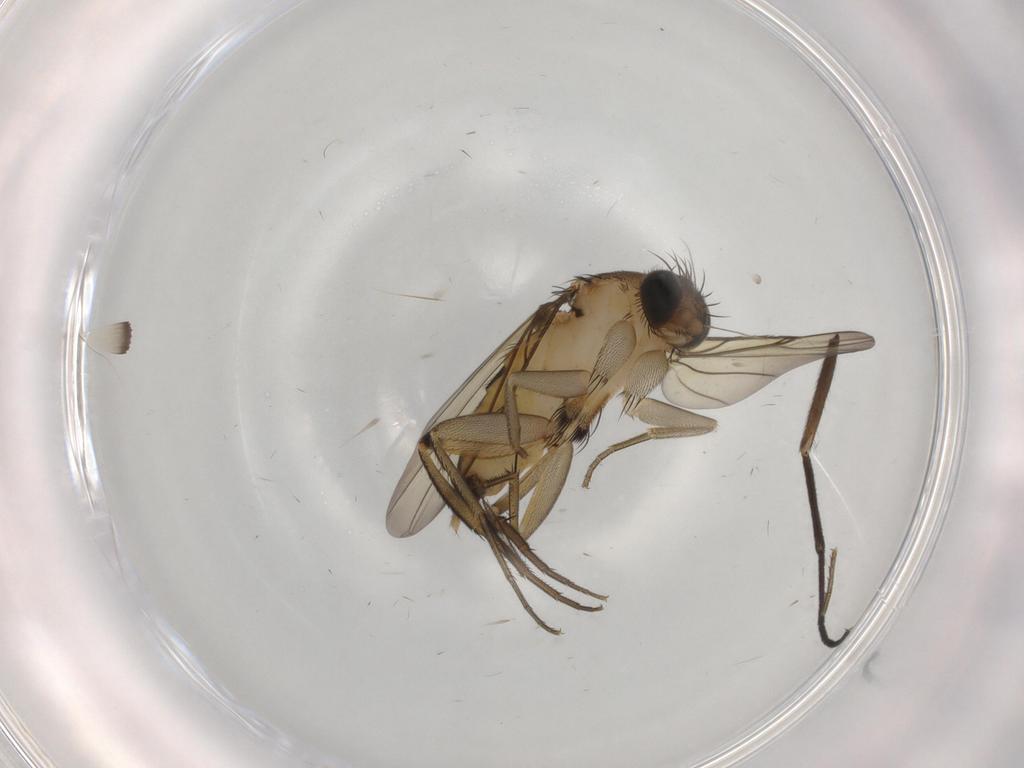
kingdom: Animalia
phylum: Arthropoda
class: Insecta
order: Diptera
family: Phoridae
